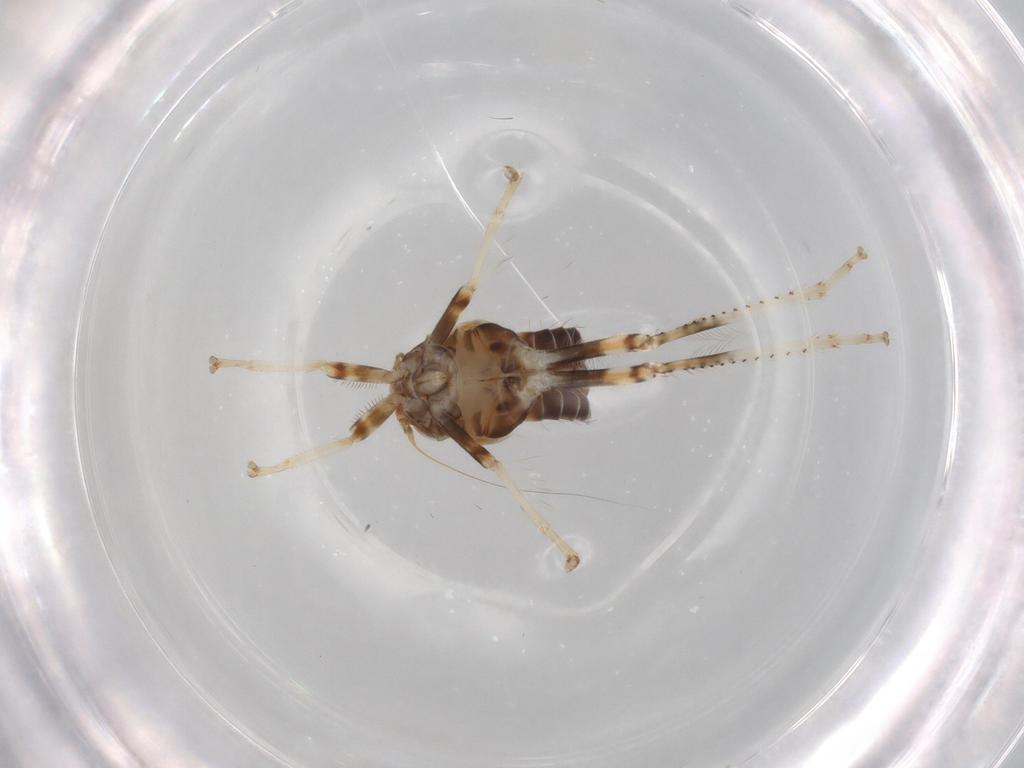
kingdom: Animalia
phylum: Arthropoda
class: Insecta
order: Hemiptera
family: Cicadellidae
